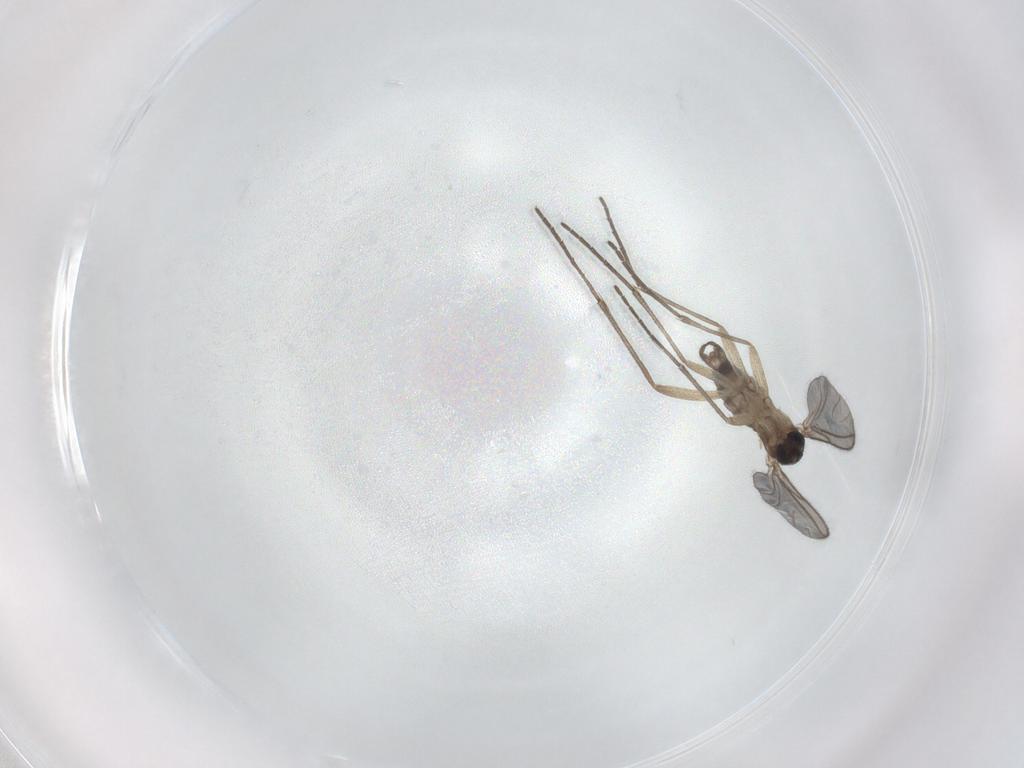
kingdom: Animalia
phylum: Arthropoda
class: Insecta
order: Diptera
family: Sciaridae
